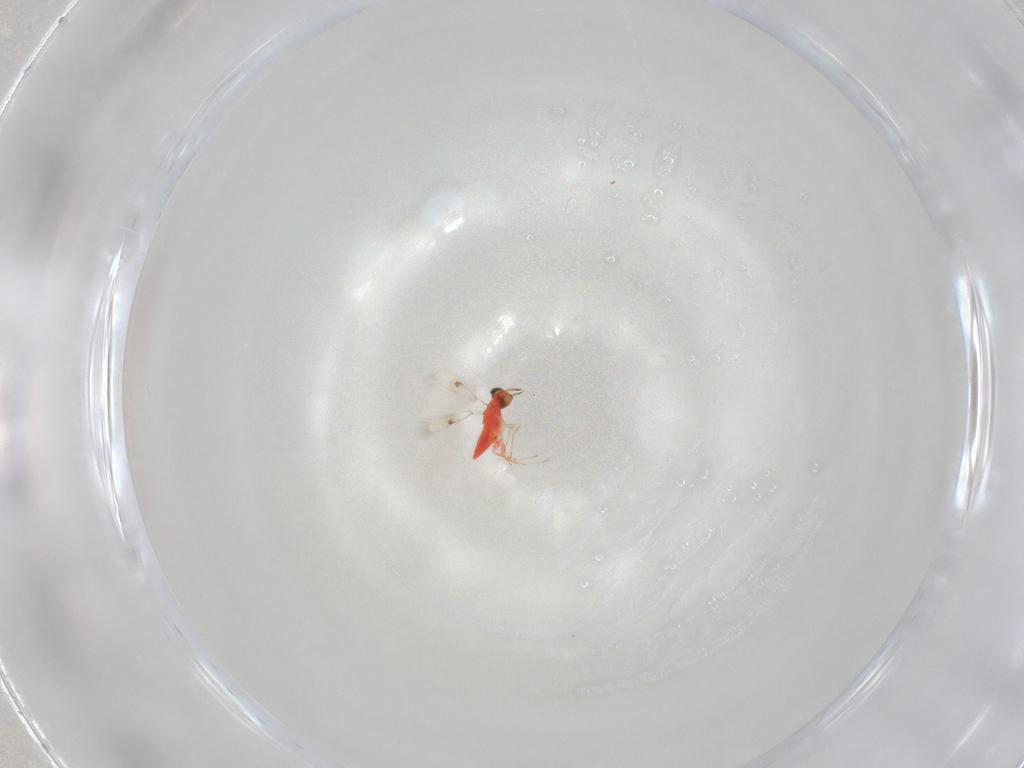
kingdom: Animalia
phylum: Arthropoda
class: Insecta
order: Hymenoptera
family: Trichogrammatidae
